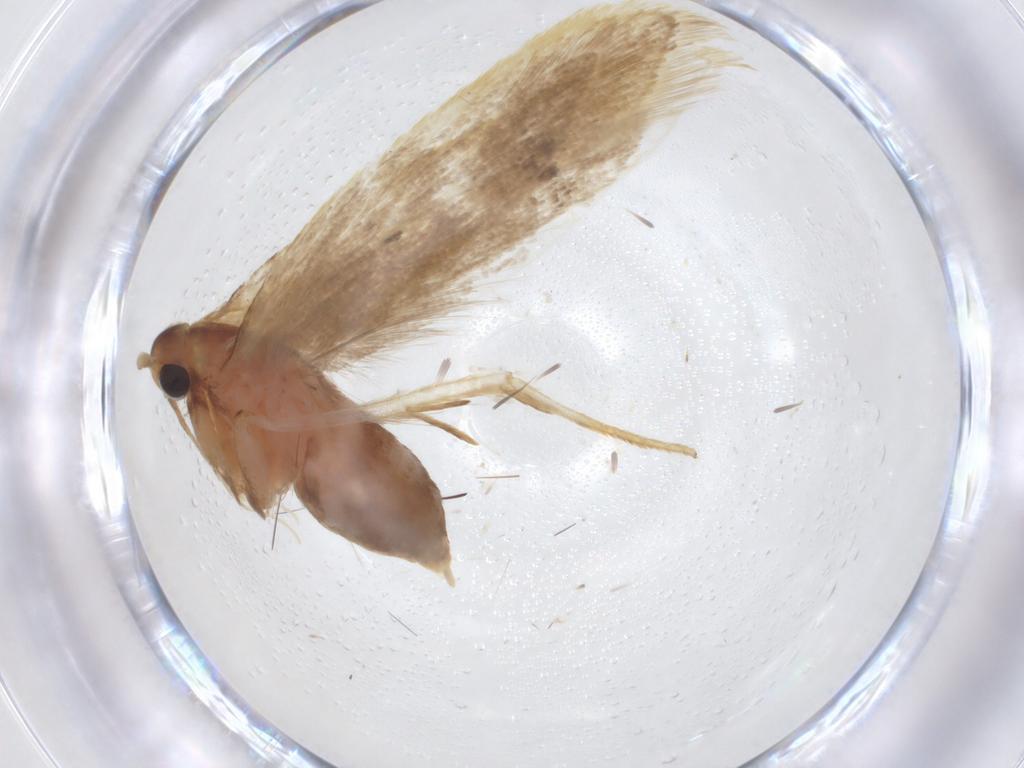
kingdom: Animalia
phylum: Arthropoda
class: Insecta
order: Lepidoptera
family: Lecithoceridae
